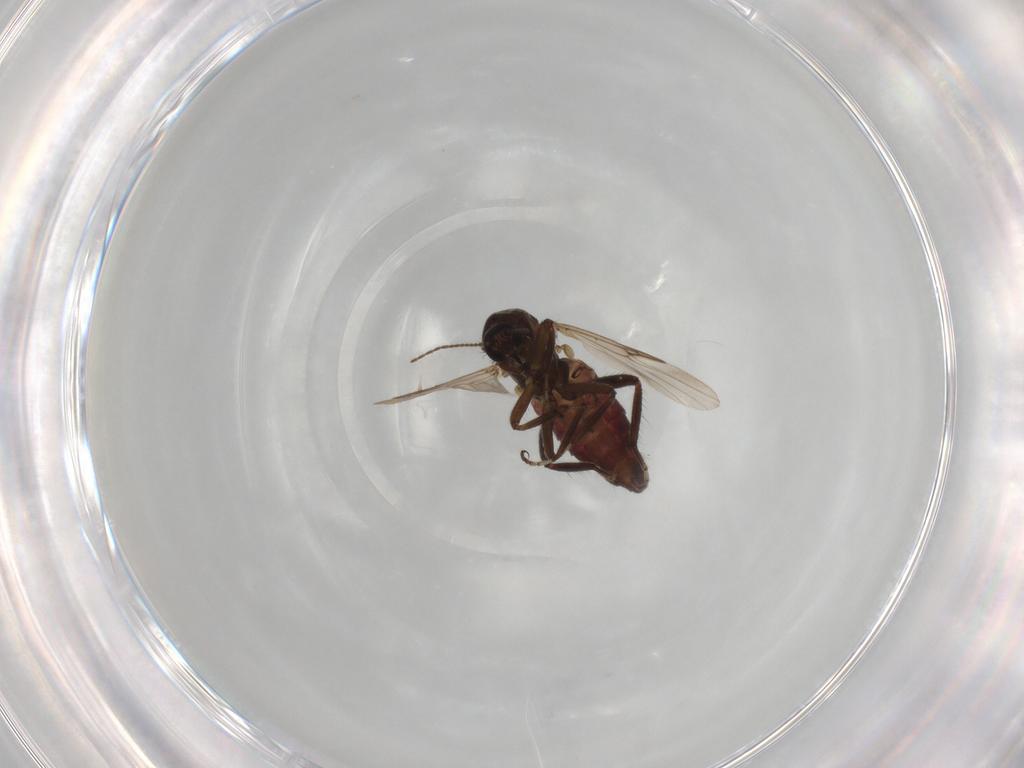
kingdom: Animalia
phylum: Arthropoda
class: Insecta
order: Diptera
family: Ceratopogonidae
